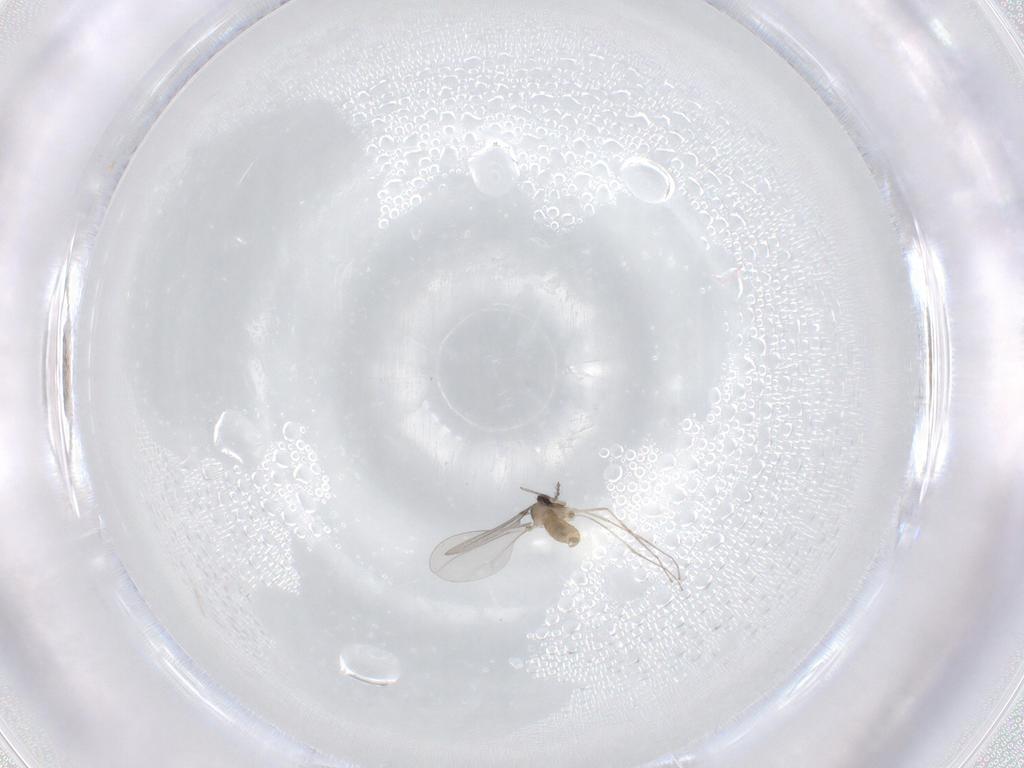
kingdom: Animalia
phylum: Arthropoda
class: Insecta
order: Diptera
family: Cecidomyiidae
